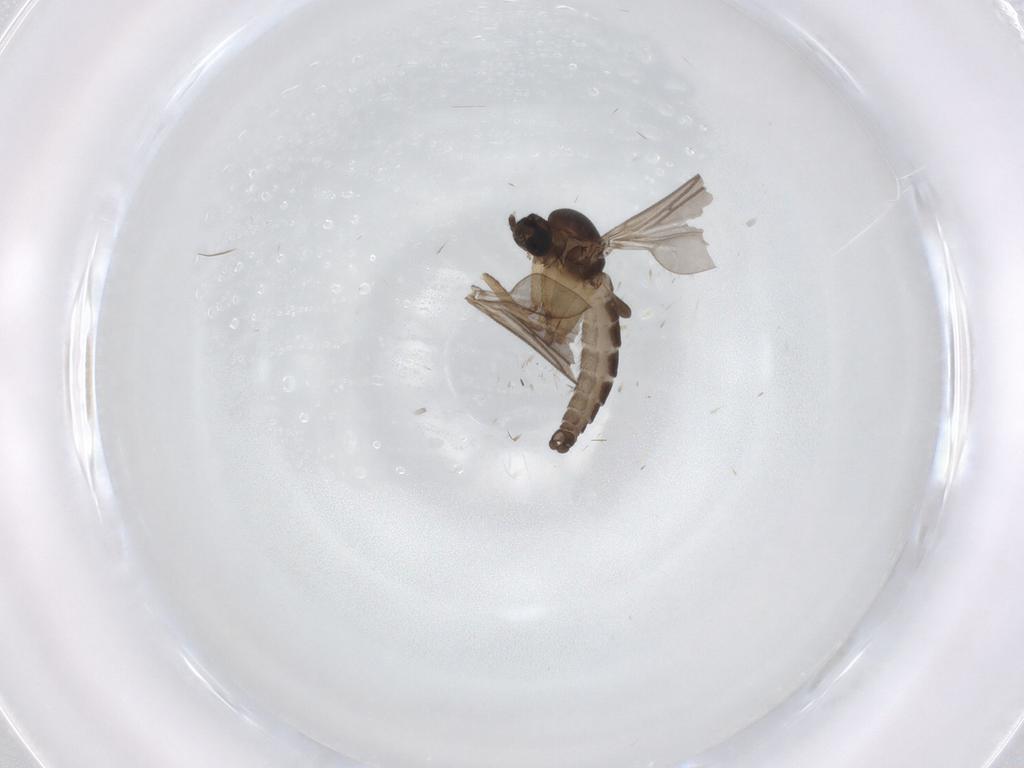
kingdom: Animalia
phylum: Arthropoda
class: Insecta
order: Diptera
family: Sciaridae
